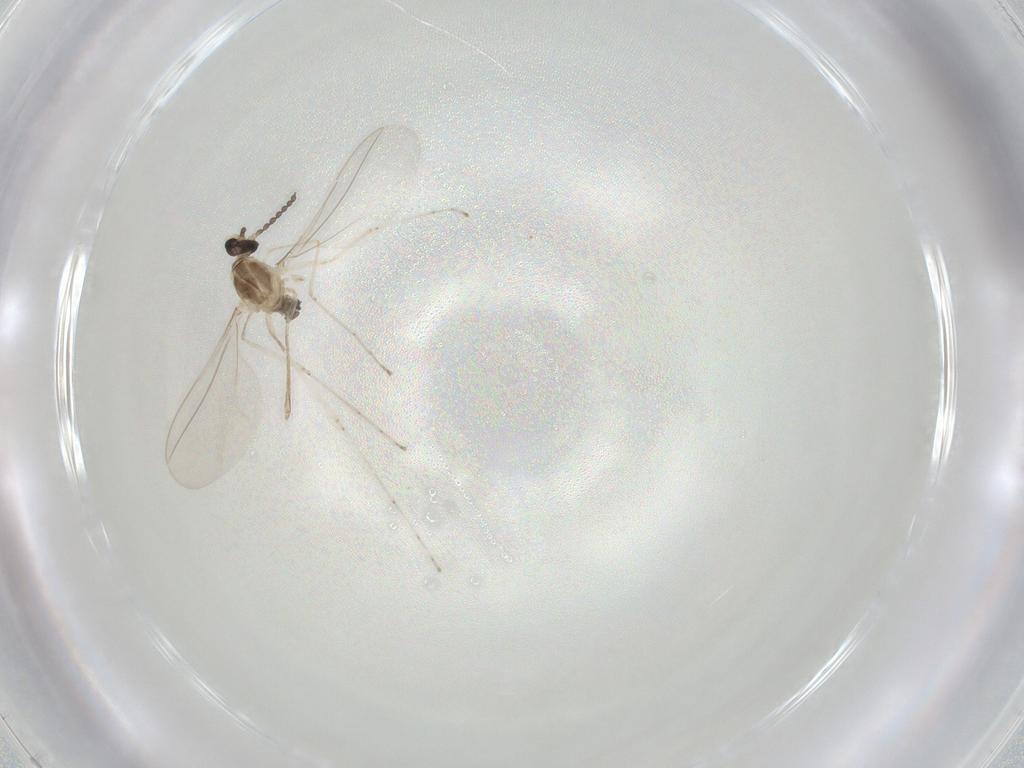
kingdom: Animalia
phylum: Arthropoda
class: Insecta
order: Diptera
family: Cecidomyiidae
